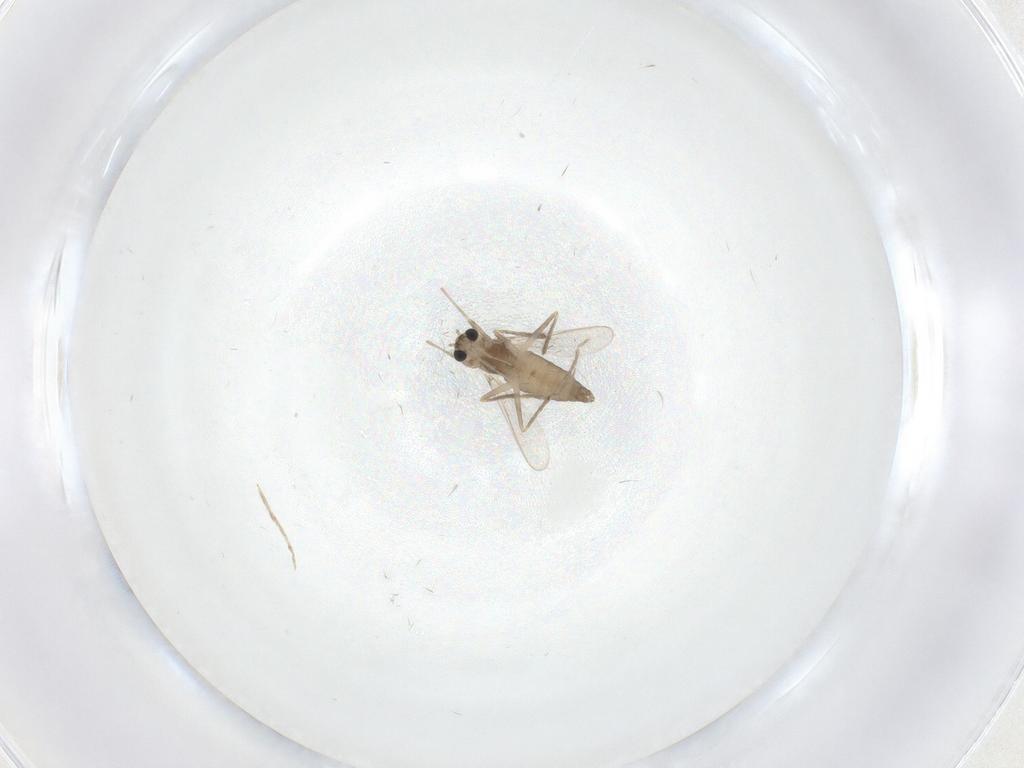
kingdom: Animalia
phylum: Arthropoda
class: Insecta
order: Diptera
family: Chironomidae
